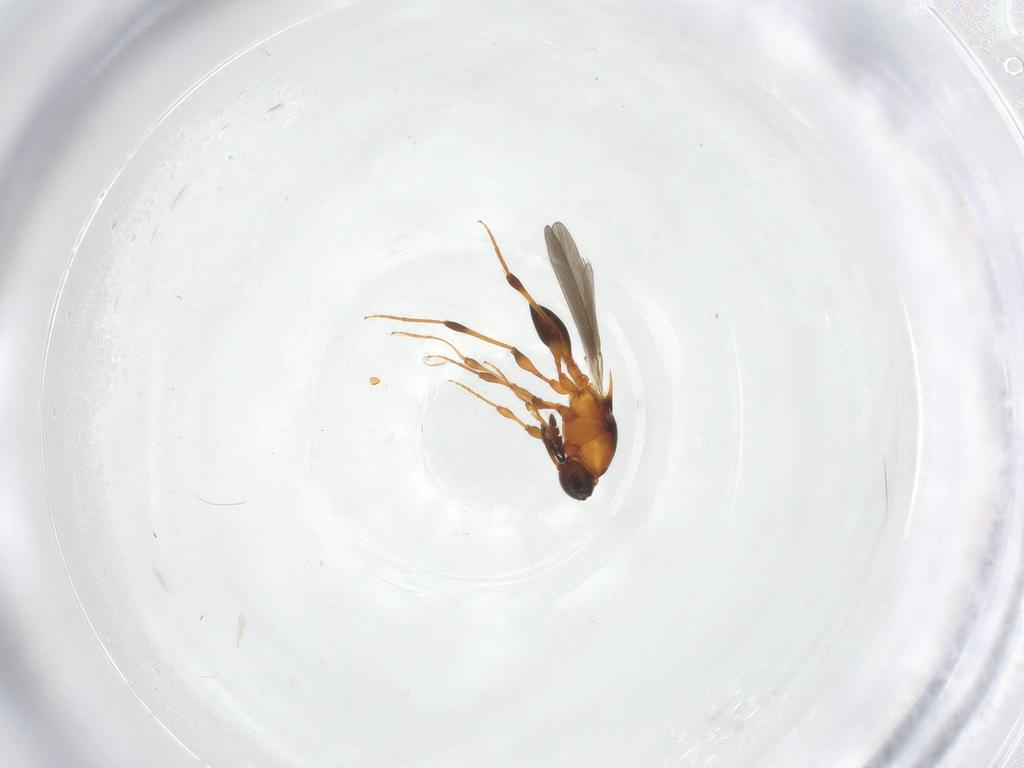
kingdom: Animalia
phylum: Arthropoda
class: Insecta
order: Hymenoptera
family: Platygastridae
